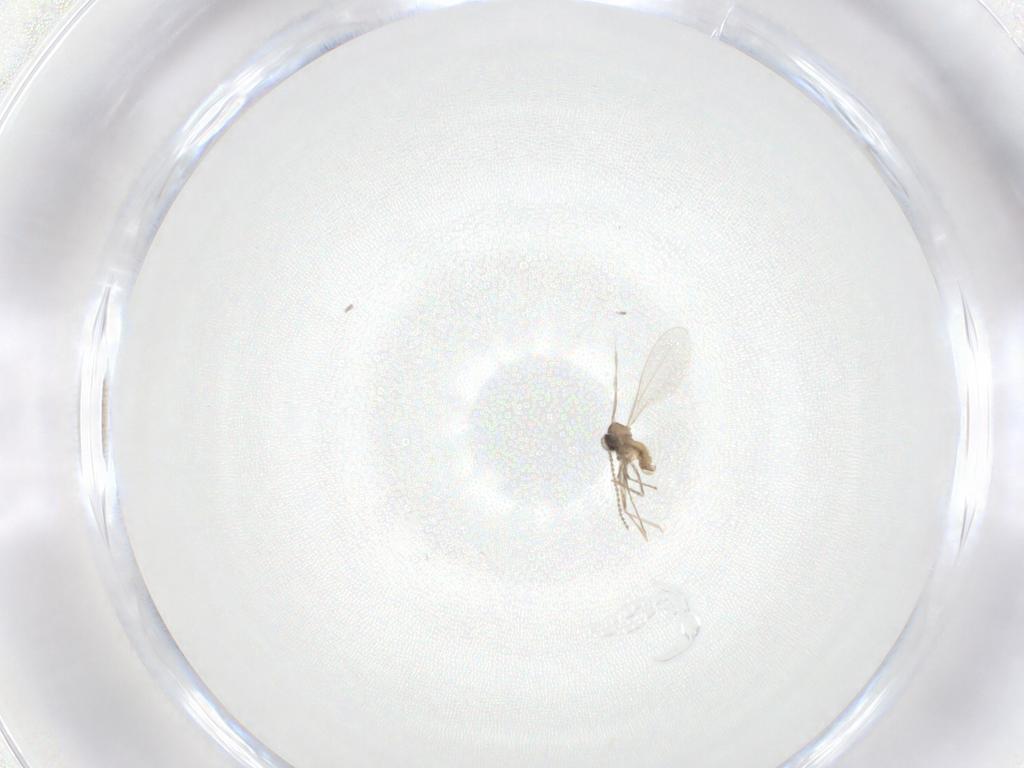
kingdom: Animalia
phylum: Arthropoda
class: Insecta
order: Diptera
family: Cecidomyiidae
